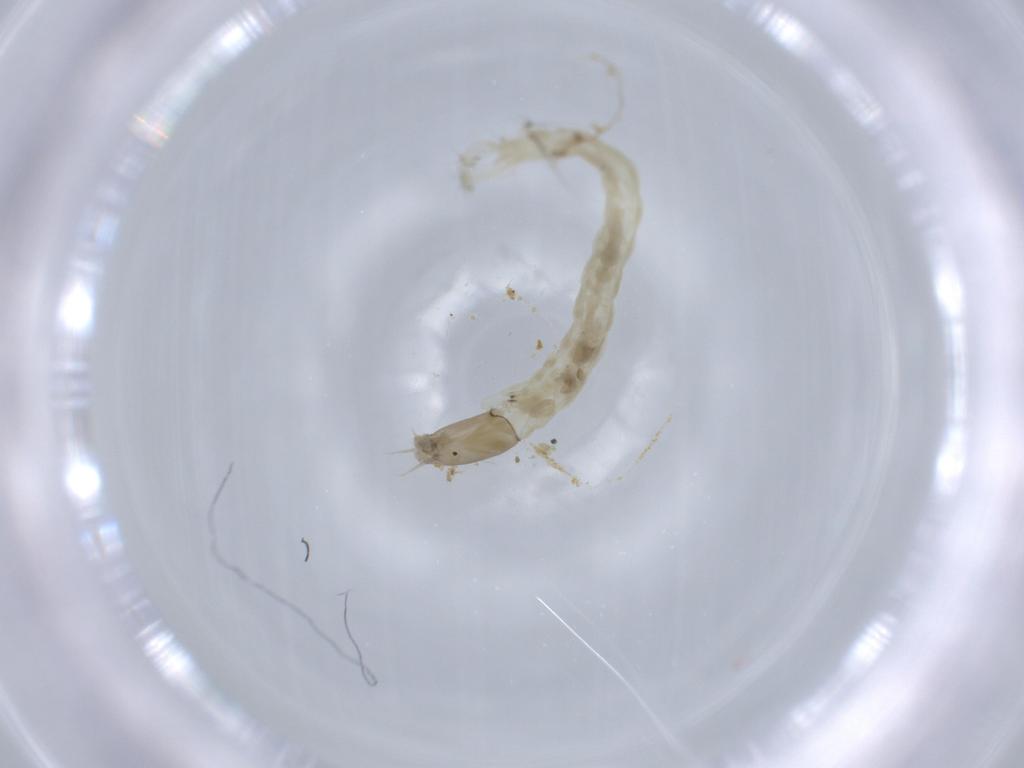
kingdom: Animalia
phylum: Arthropoda
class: Insecta
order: Diptera
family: Chironomidae
